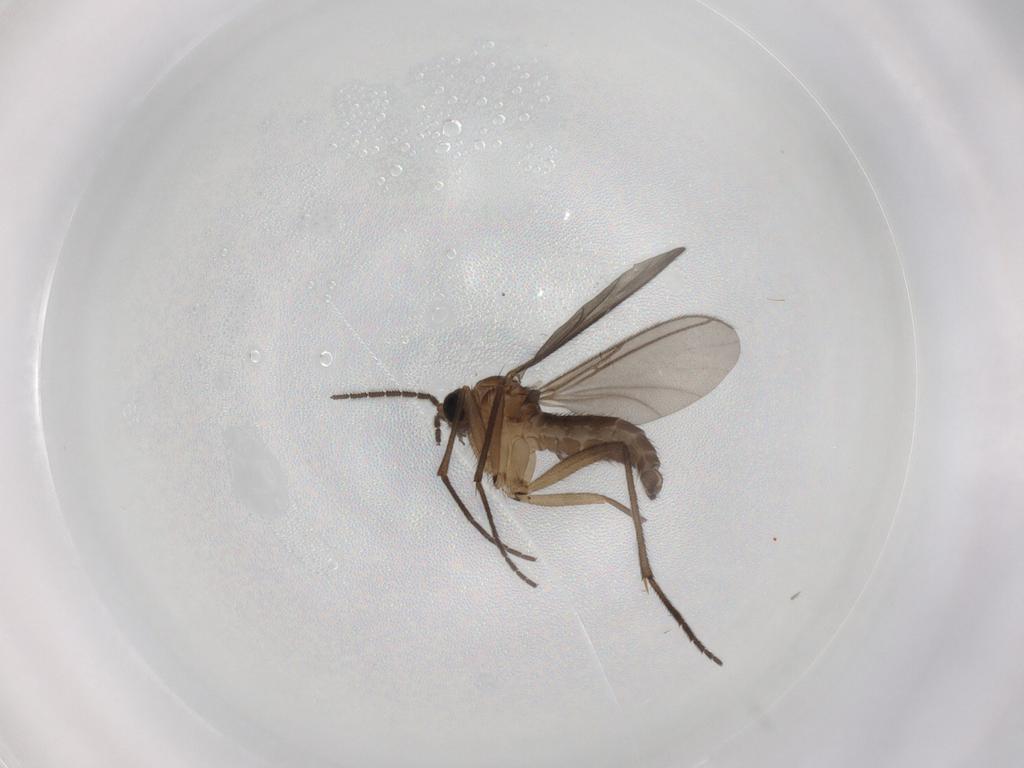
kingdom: Animalia
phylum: Arthropoda
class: Insecta
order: Diptera
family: Sciaridae
